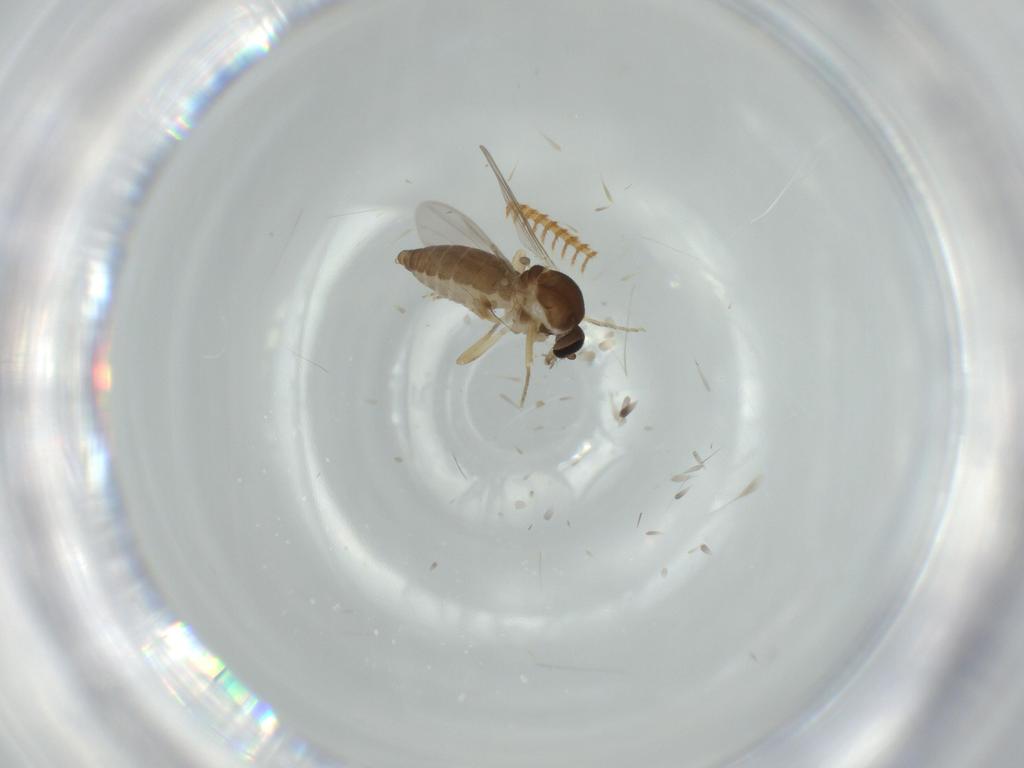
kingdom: Animalia
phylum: Arthropoda
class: Insecta
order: Diptera
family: Ceratopogonidae
